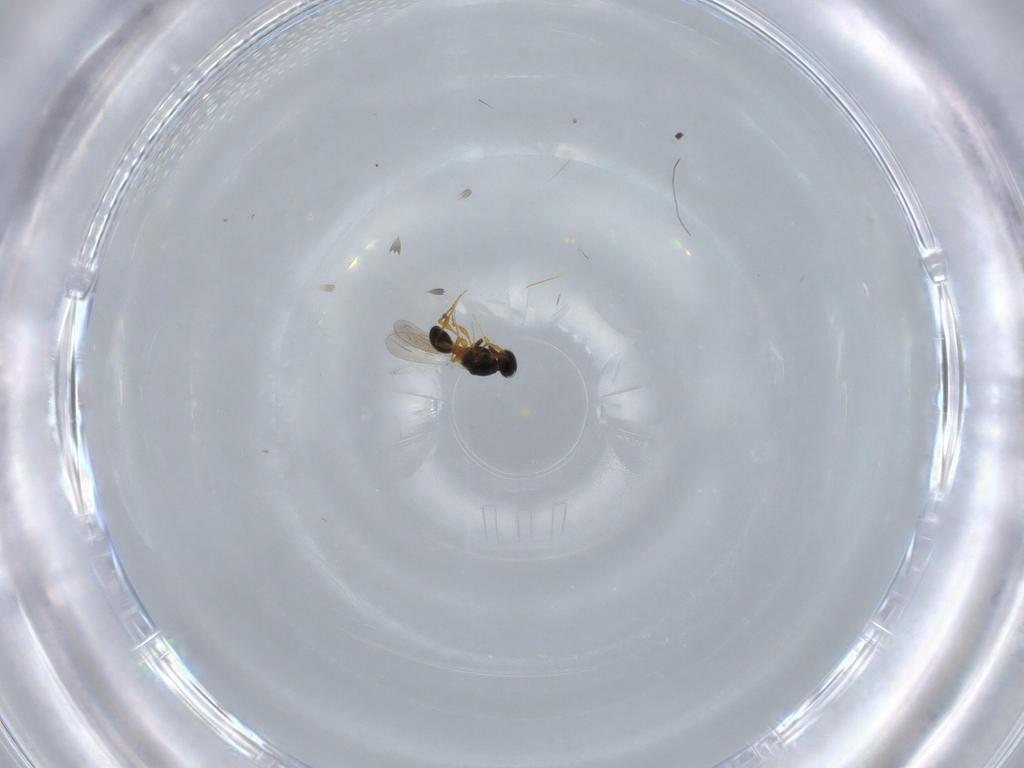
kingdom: Animalia
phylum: Arthropoda
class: Insecta
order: Hymenoptera
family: Platygastridae
